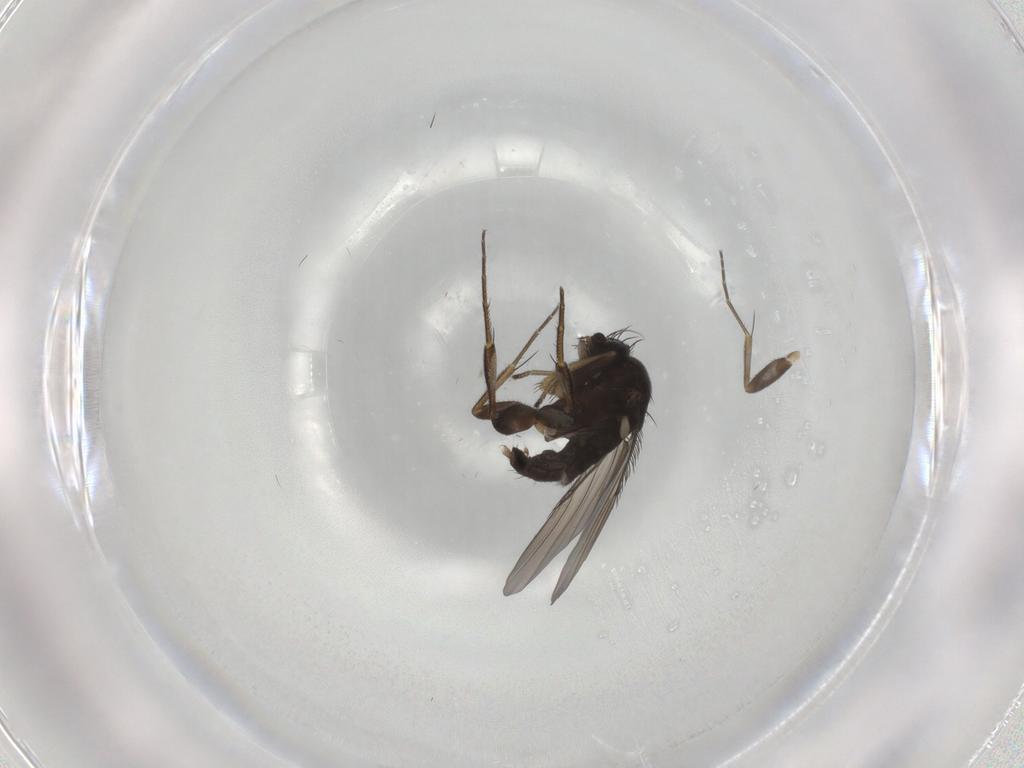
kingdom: Animalia
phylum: Arthropoda
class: Insecta
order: Diptera
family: Phoridae
